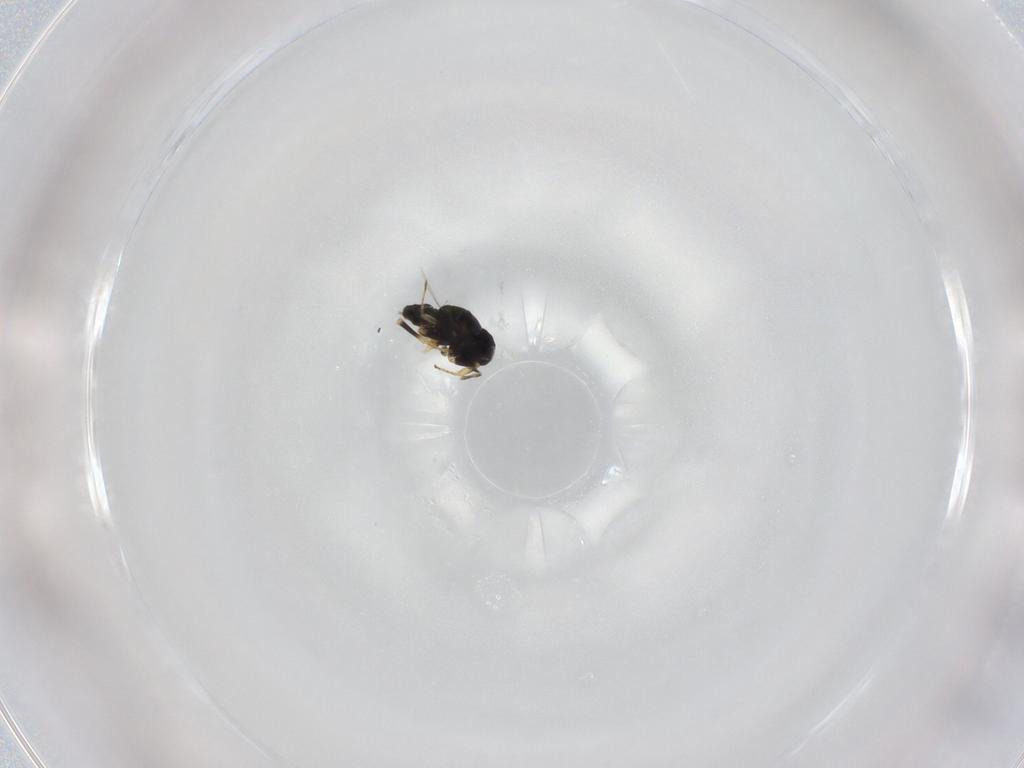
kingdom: Animalia
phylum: Arthropoda
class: Insecta
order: Hymenoptera
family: Encyrtidae
